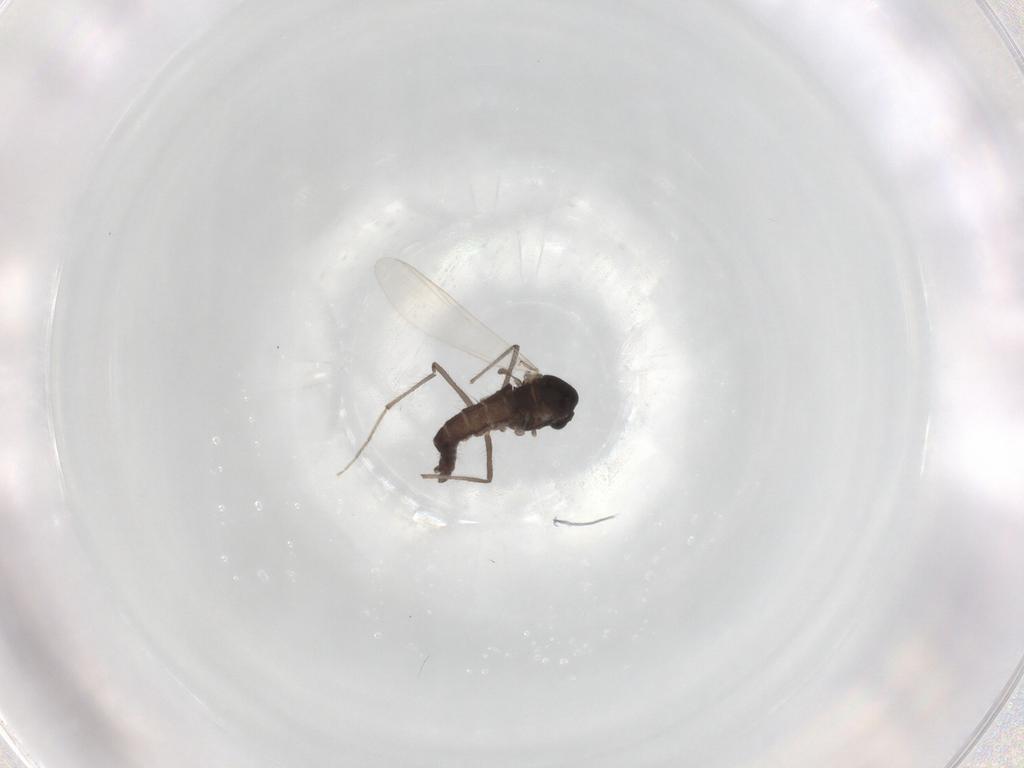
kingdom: Animalia
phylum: Arthropoda
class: Insecta
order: Diptera
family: Chironomidae
